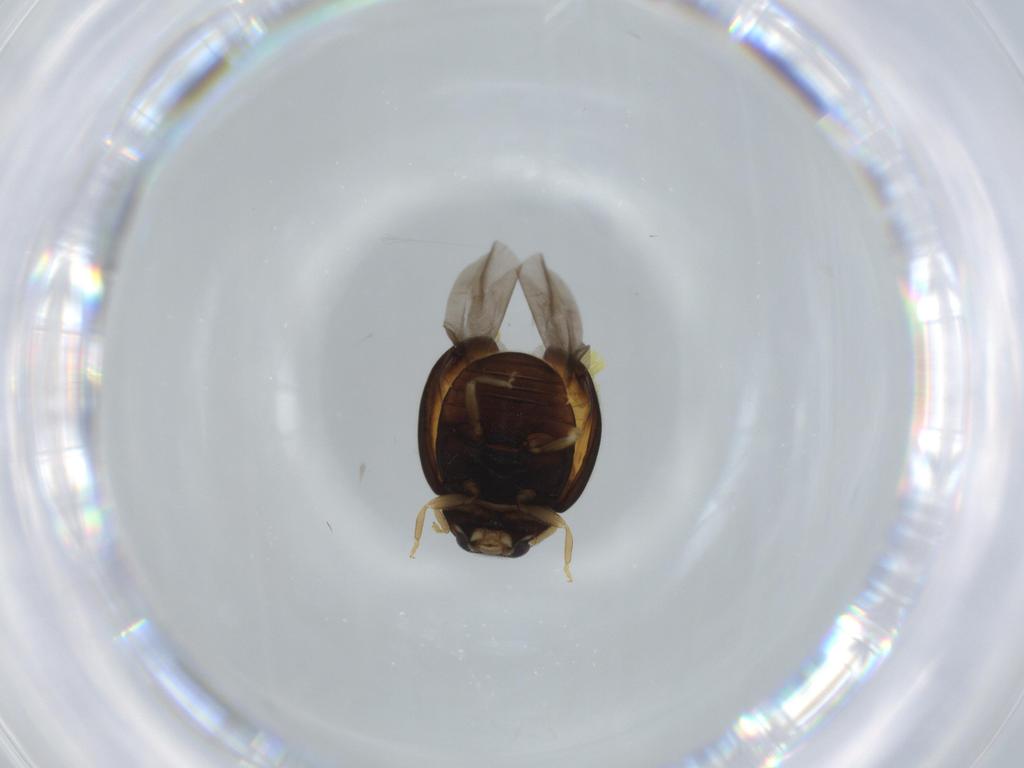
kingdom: Animalia
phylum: Arthropoda
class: Insecta
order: Coleoptera
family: Coccinellidae
